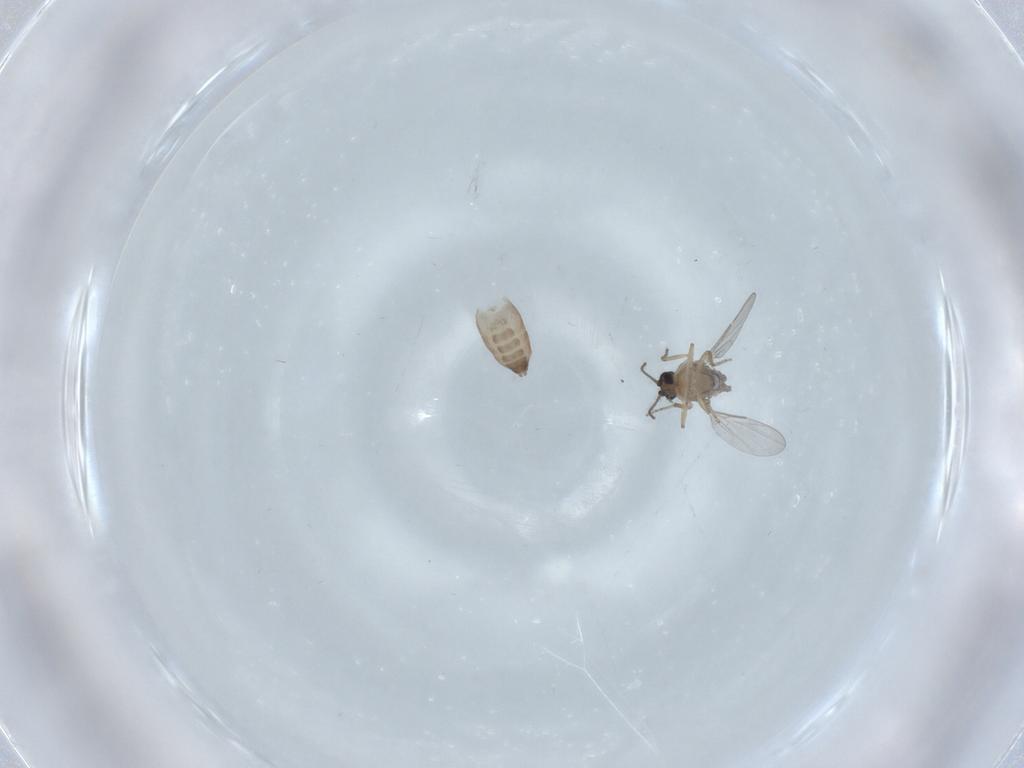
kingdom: Animalia
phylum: Arthropoda
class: Insecta
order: Diptera
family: Ceratopogonidae
